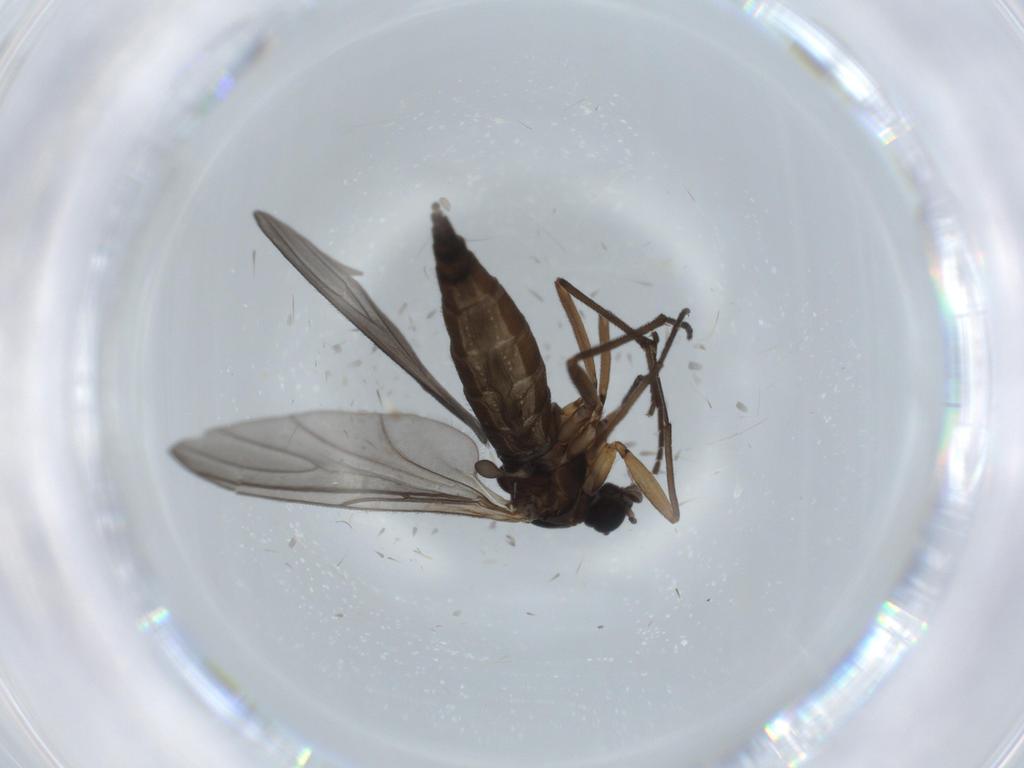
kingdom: Animalia
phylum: Arthropoda
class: Insecta
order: Diptera
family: Sciaridae
